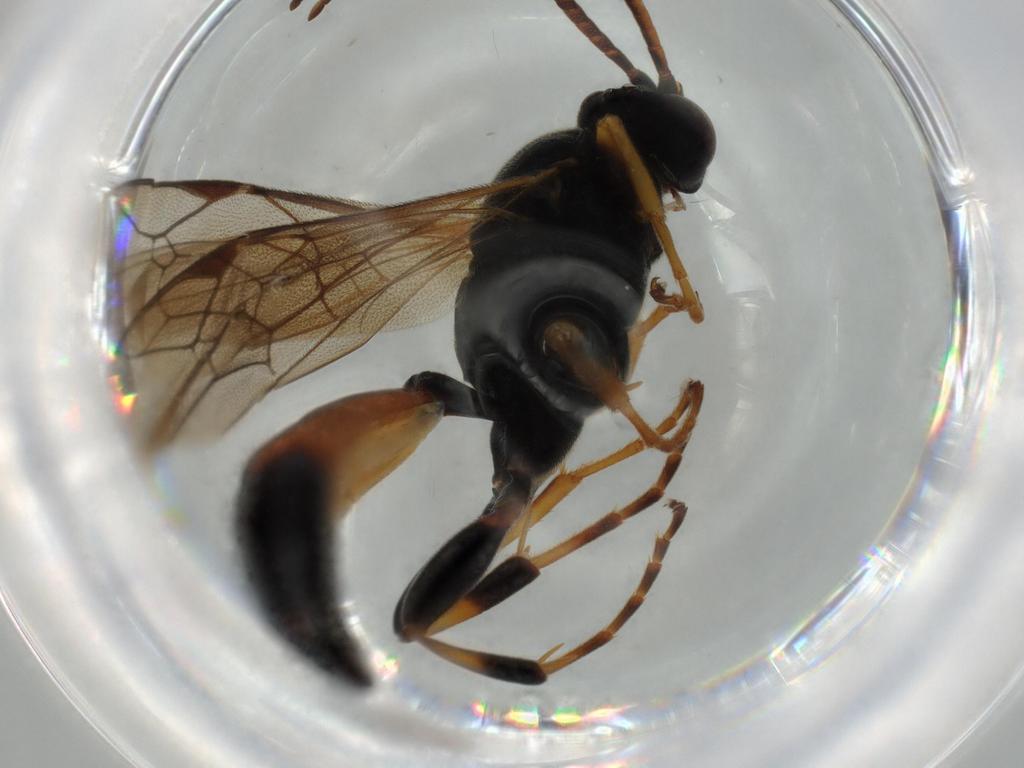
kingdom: Animalia
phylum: Arthropoda
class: Insecta
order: Hymenoptera
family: Ichneumonidae
